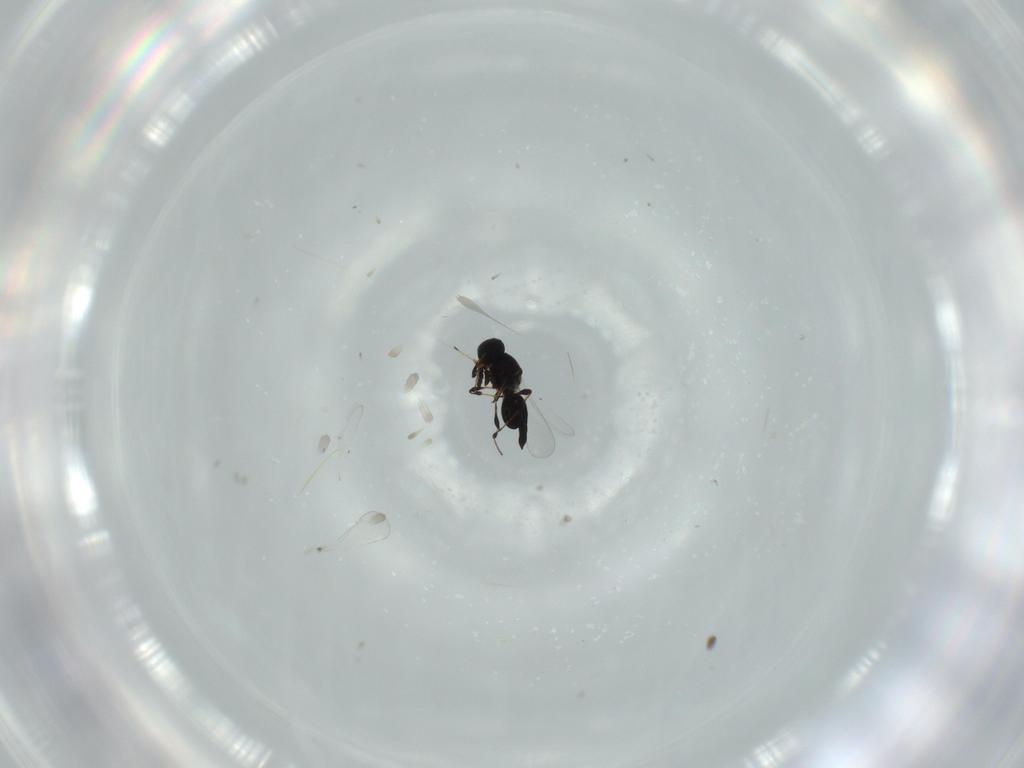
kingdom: Animalia
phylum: Arthropoda
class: Insecta
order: Hymenoptera
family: Platygastridae
